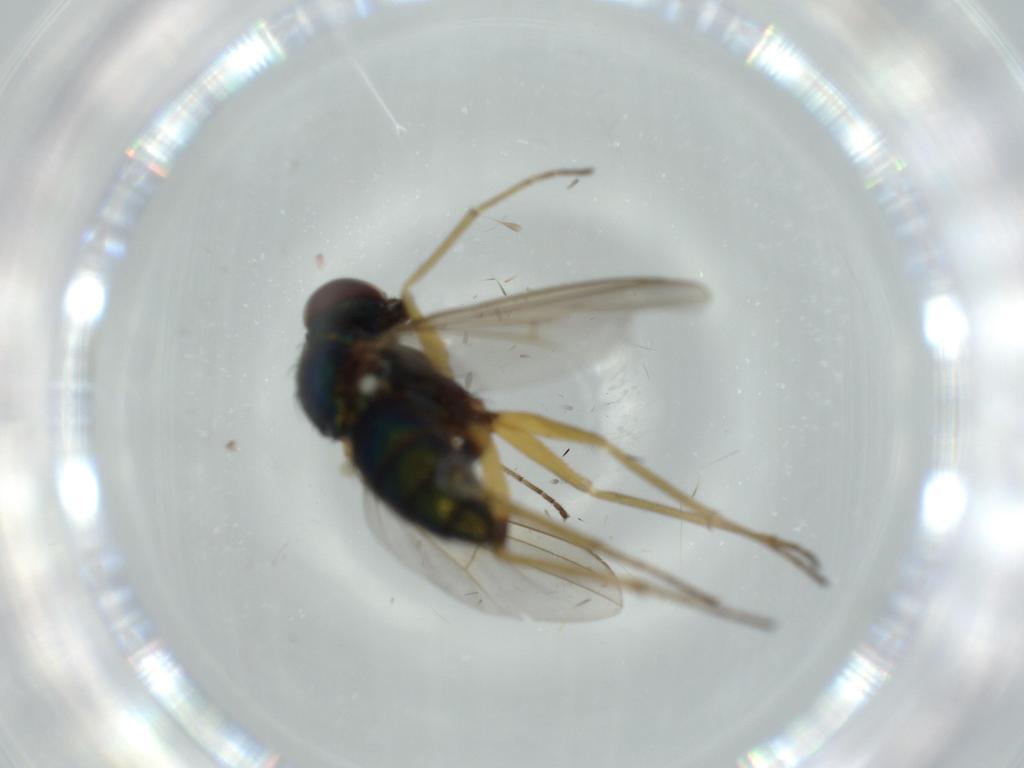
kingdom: Animalia
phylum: Arthropoda
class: Insecta
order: Diptera
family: Dolichopodidae
